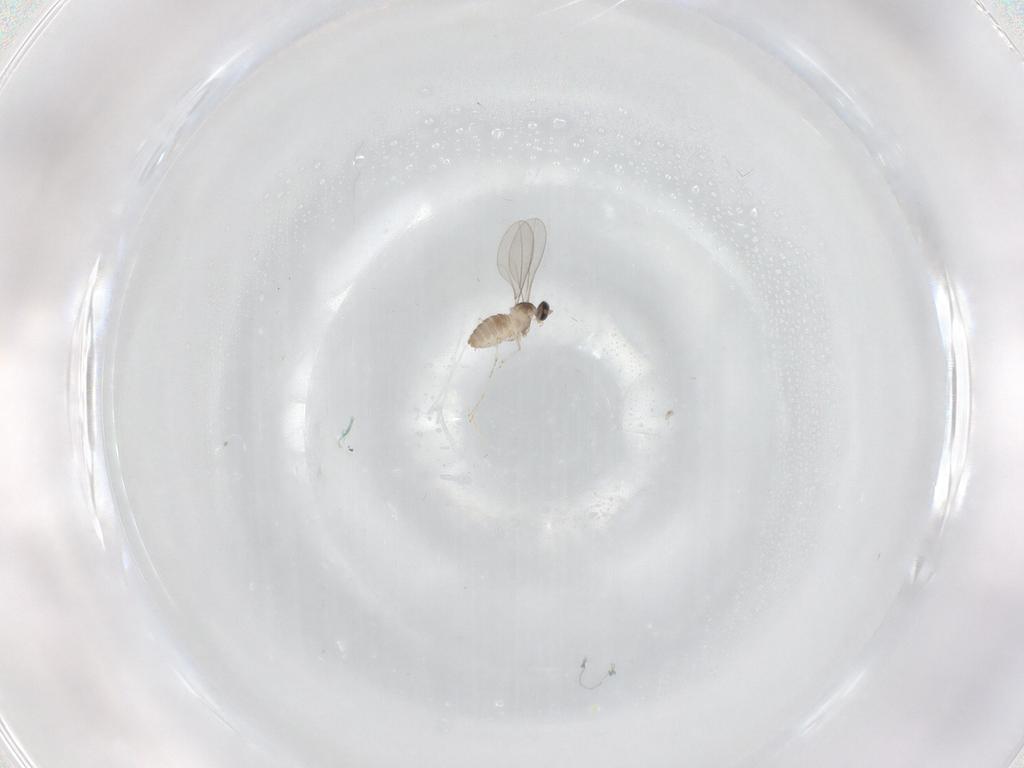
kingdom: Animalia
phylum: Arthropoda
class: Insecta
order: Diptera
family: Cecidomyiidae
